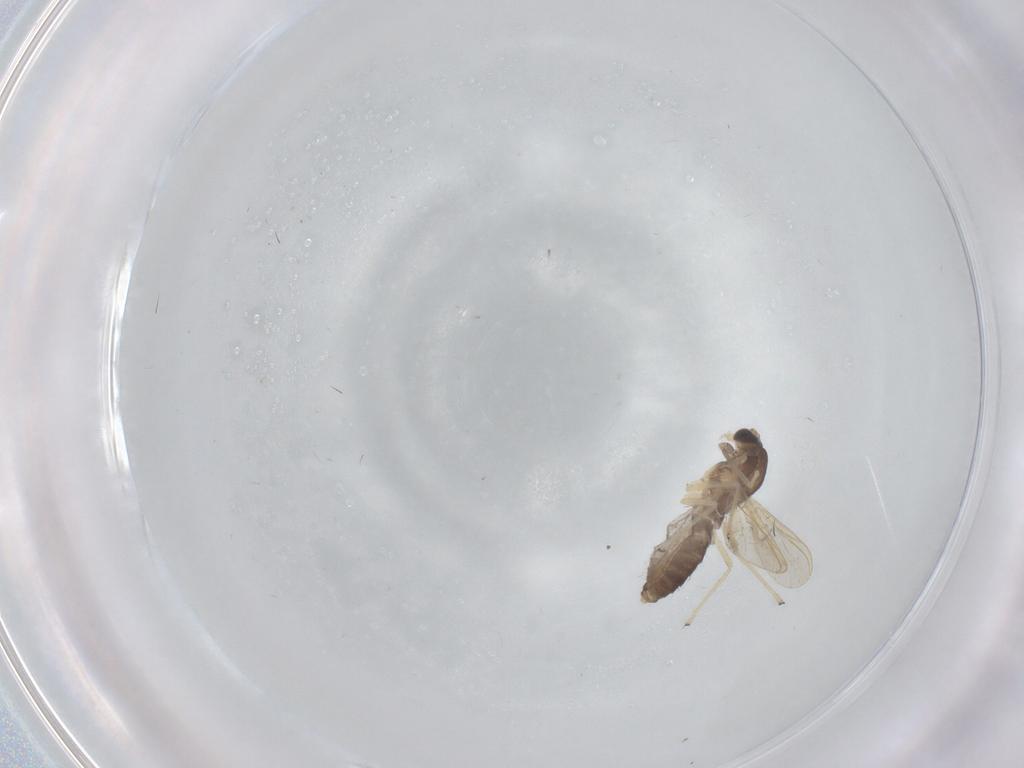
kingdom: Animalia
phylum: Arthropoda
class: Insecta
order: Diptera
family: Chironomidae
